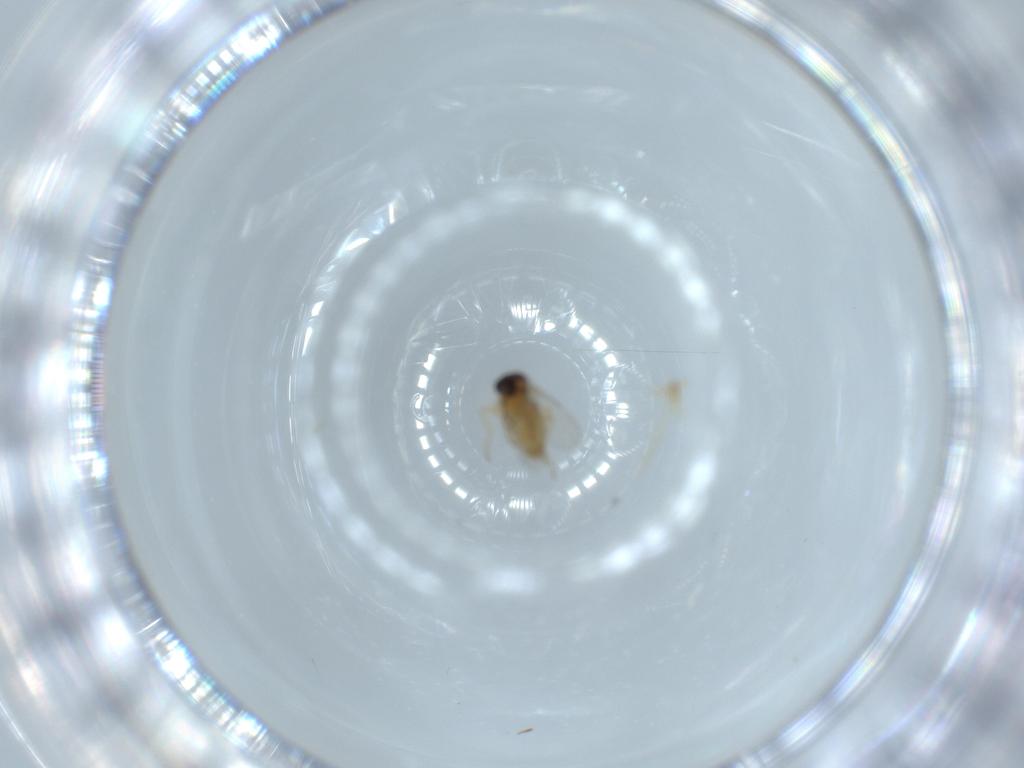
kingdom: Animalia
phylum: Arthropoda
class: Insecta
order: Diptera
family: Ceratopogonidae
